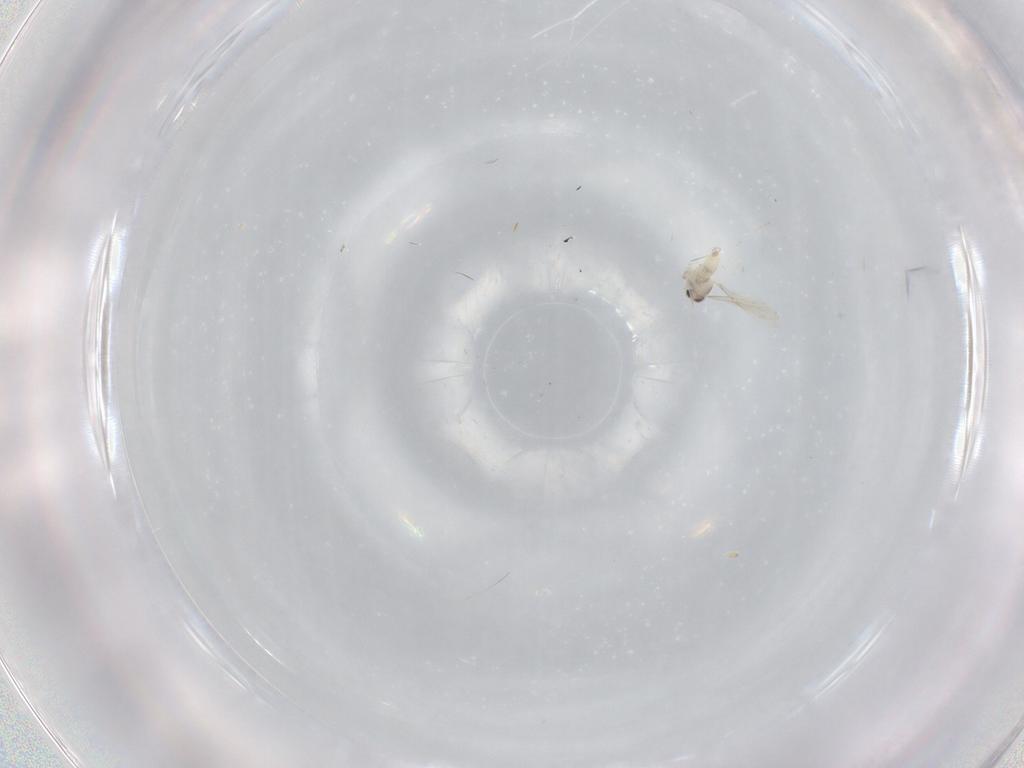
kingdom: Animalia
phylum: Arthropoda
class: Insecta
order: Diptera
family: Cecidomyiidae
